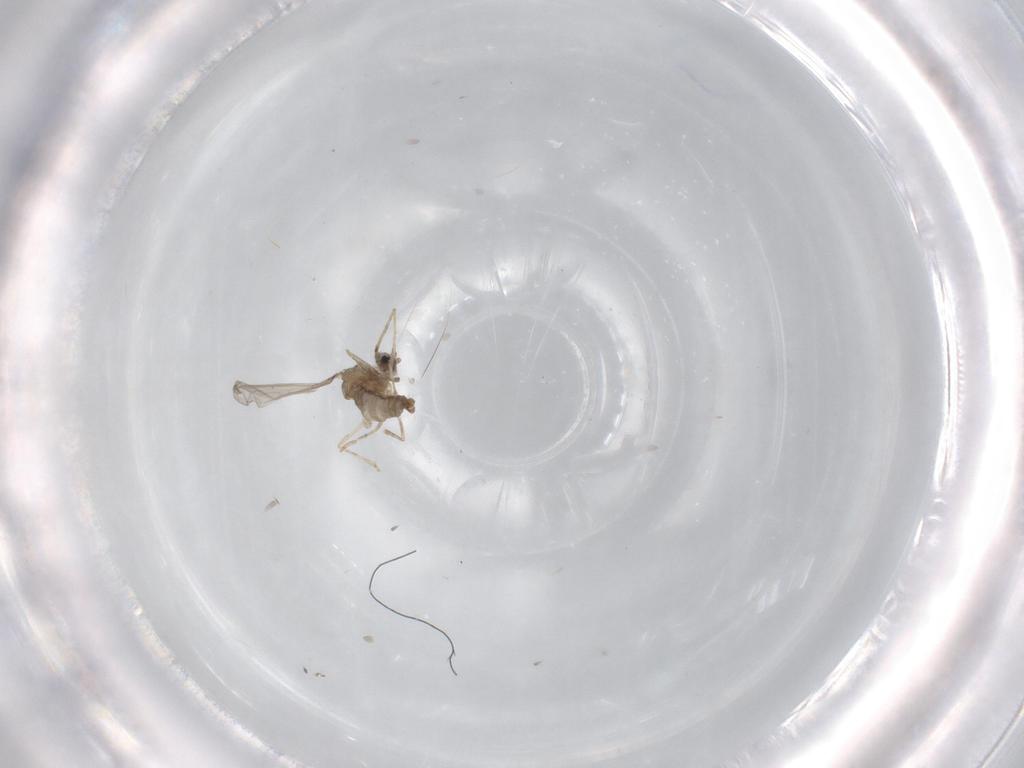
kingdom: Animalia
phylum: Arthropoda
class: Insecta
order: Diptera
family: Cecidomyiidae
